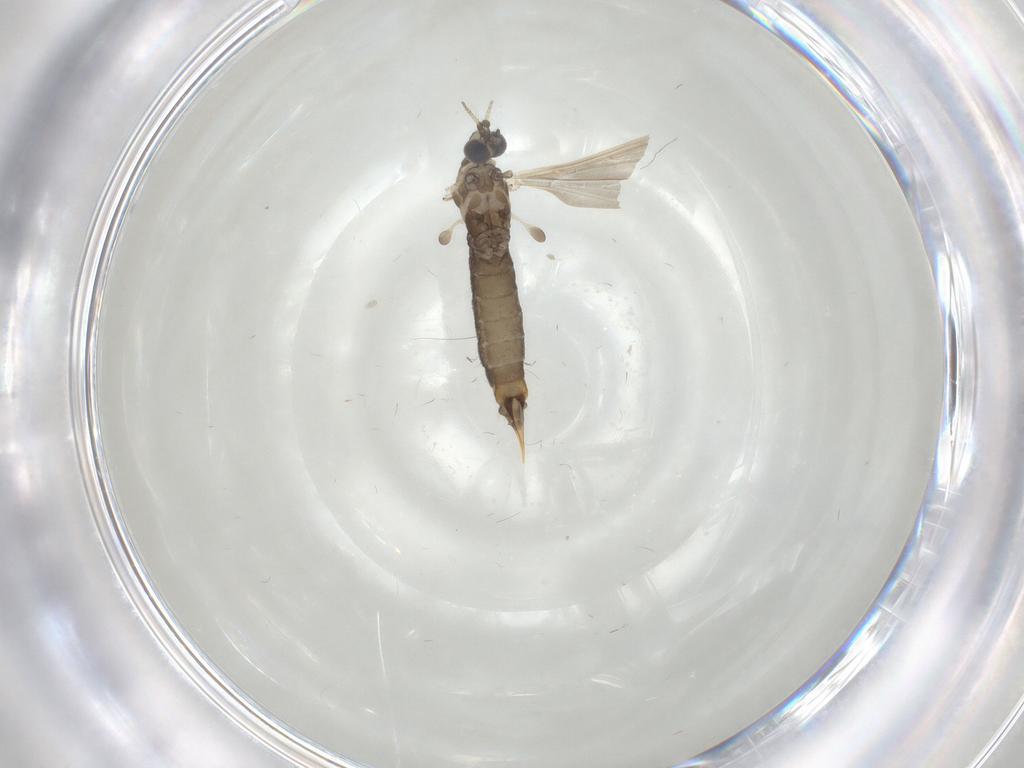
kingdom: Animalia
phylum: Arthropoda
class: Insecta
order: Diptera
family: Limoniidae
